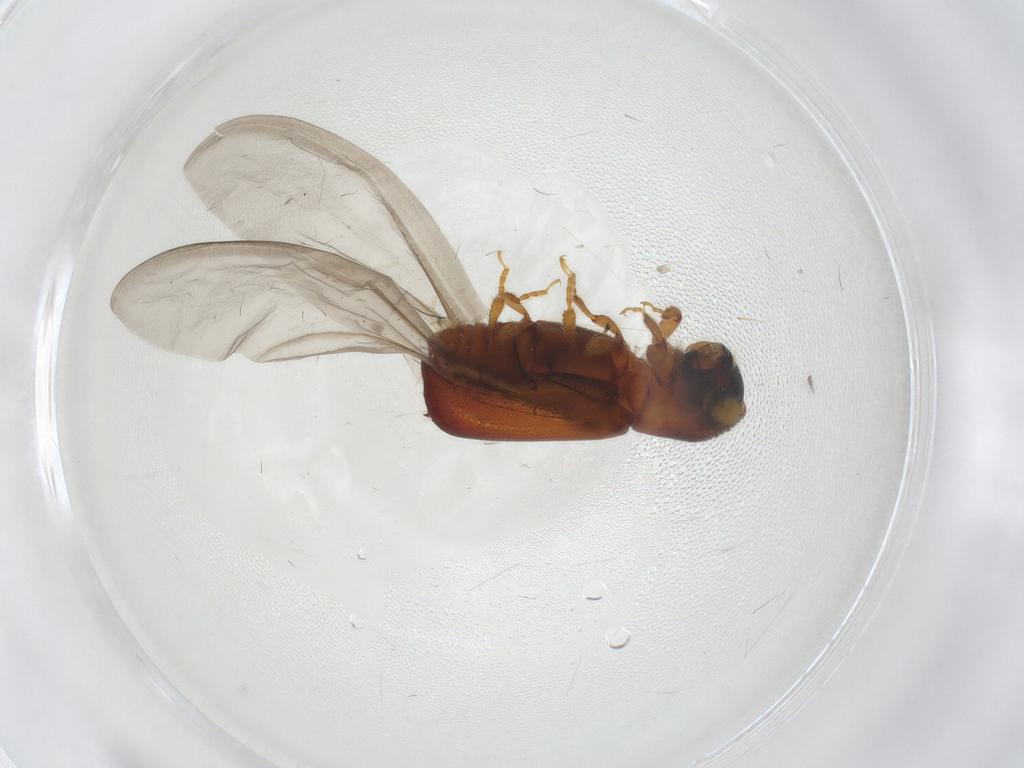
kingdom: Animalia
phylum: Arthropoda
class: Insecta
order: Coleoptera
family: Curculionidae
